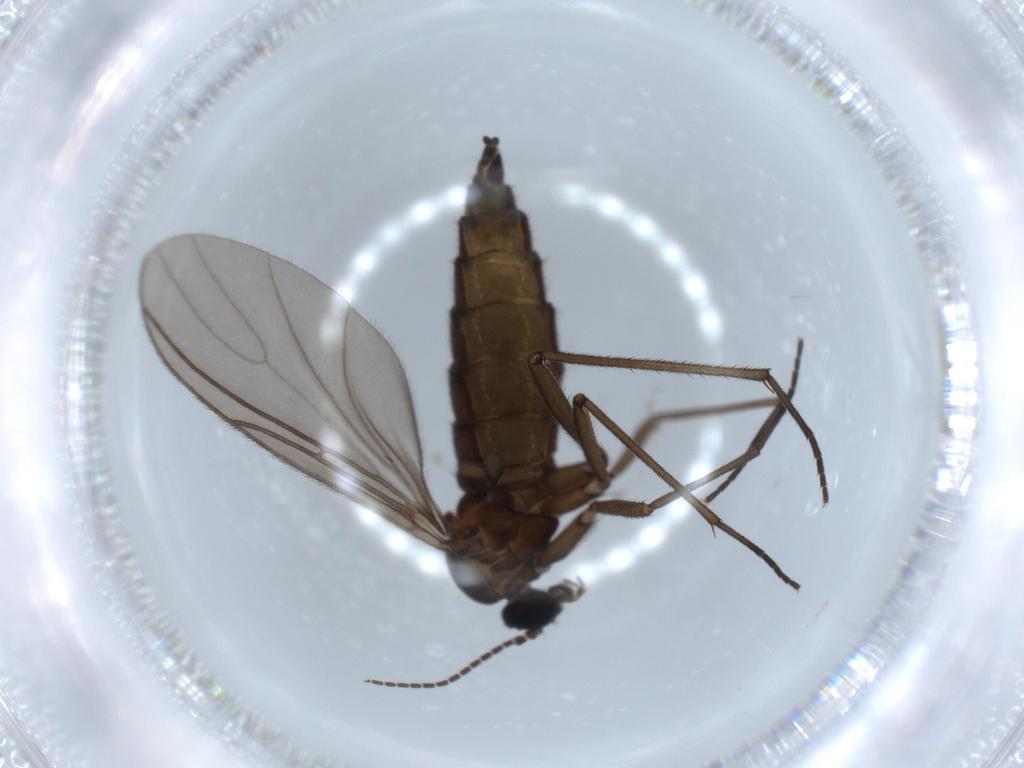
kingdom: Animalia
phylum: Arthropoda
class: Insecta
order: Diptera
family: Sciaridae
